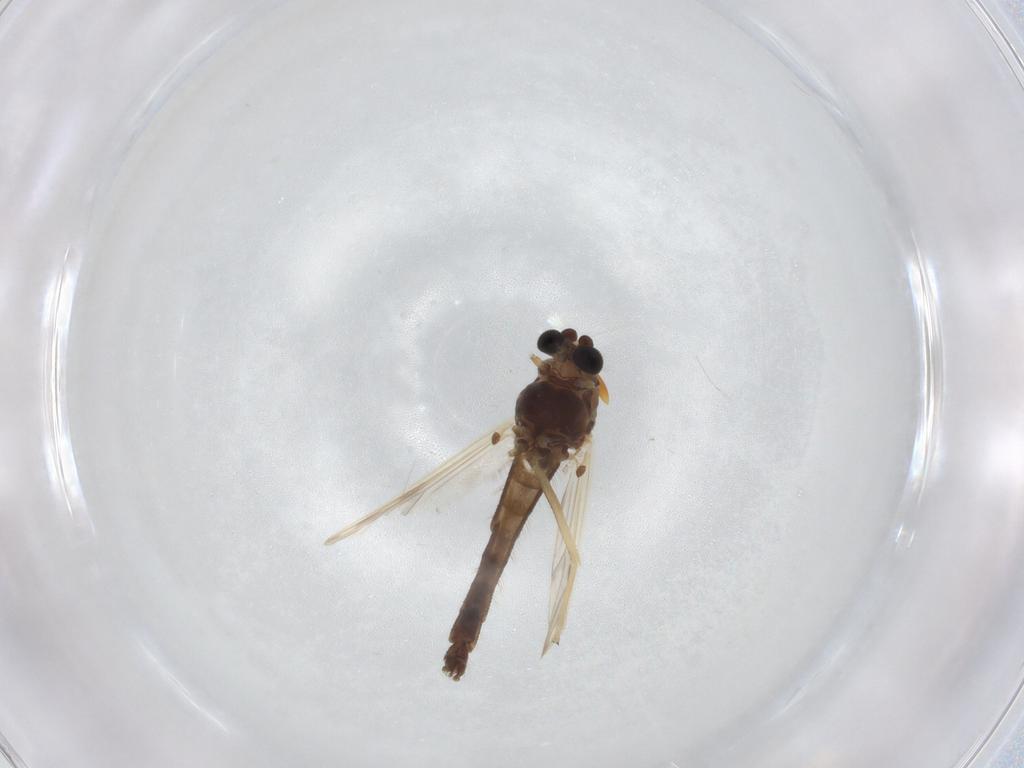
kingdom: Animalia
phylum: Arthropoda
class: Insecta
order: Diptera
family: Chironomidae
